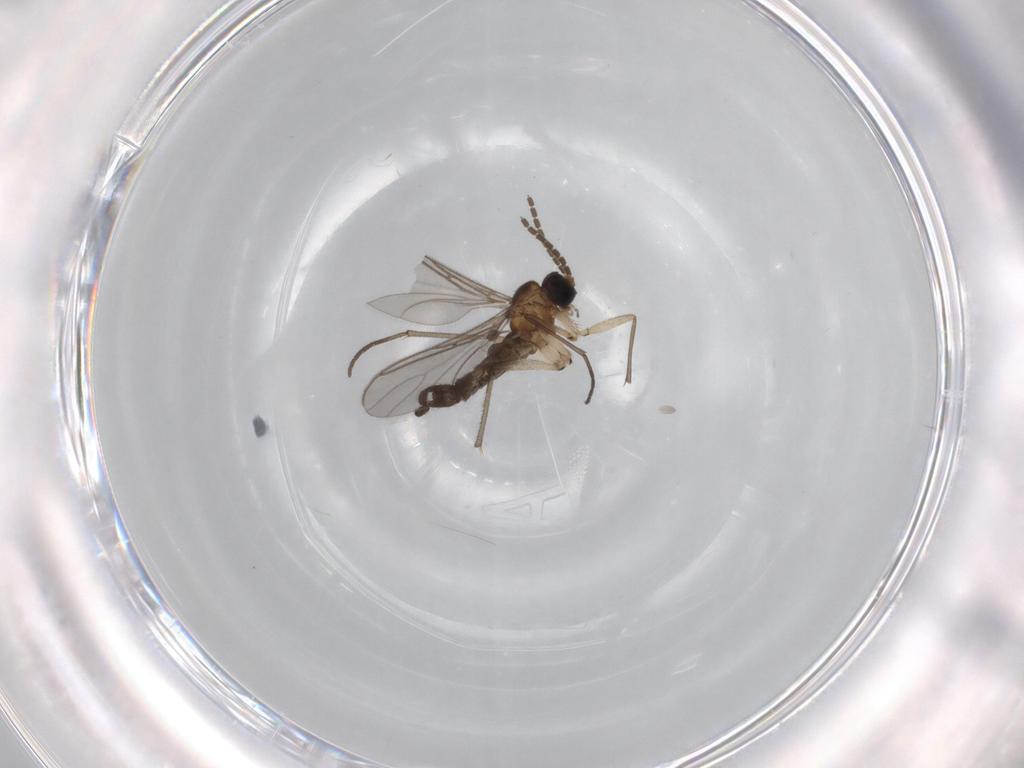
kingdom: Animalia
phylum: Arthropoda
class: Insecta
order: Diptera
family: Sciaridae
